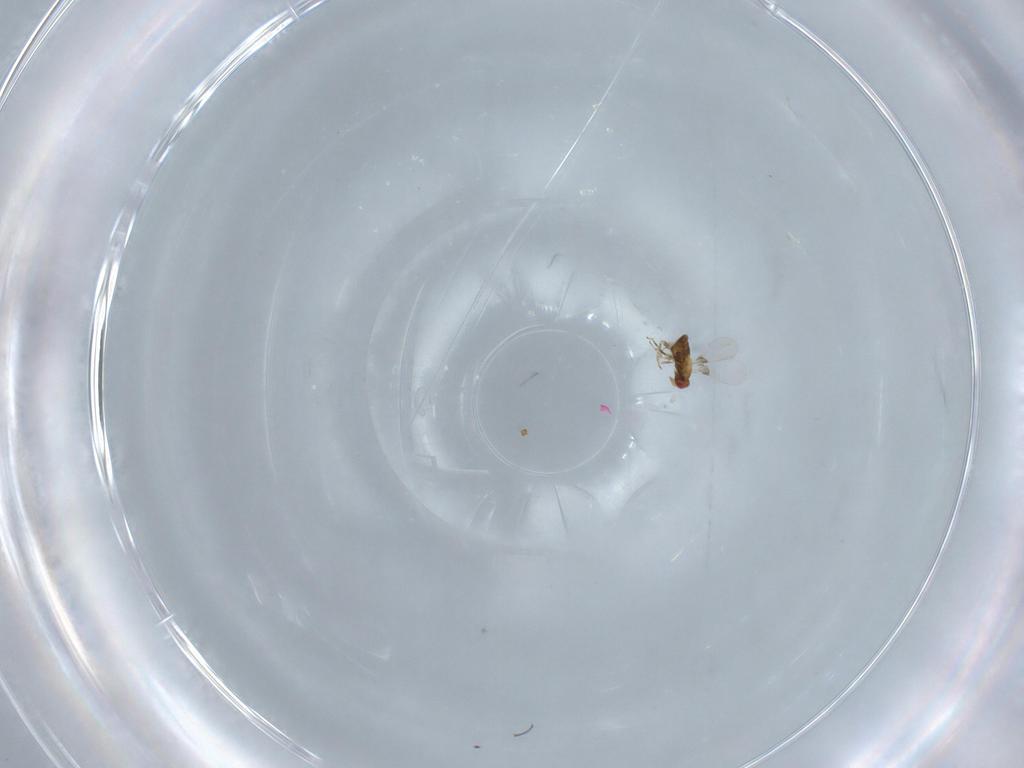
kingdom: Animalia
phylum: Arthropoda
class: Insecta
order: Hymenoptera
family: Trichogrammatidae
